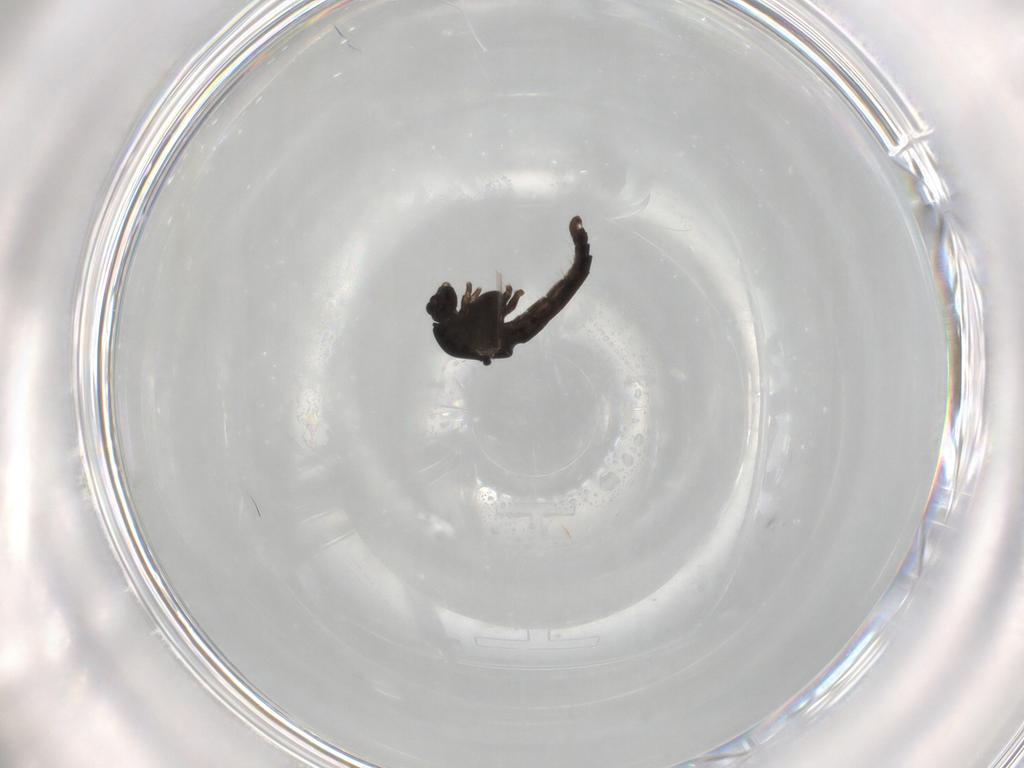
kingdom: Animalia
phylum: Arthropoda
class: Insecta
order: Diptera
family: Chironomidae
